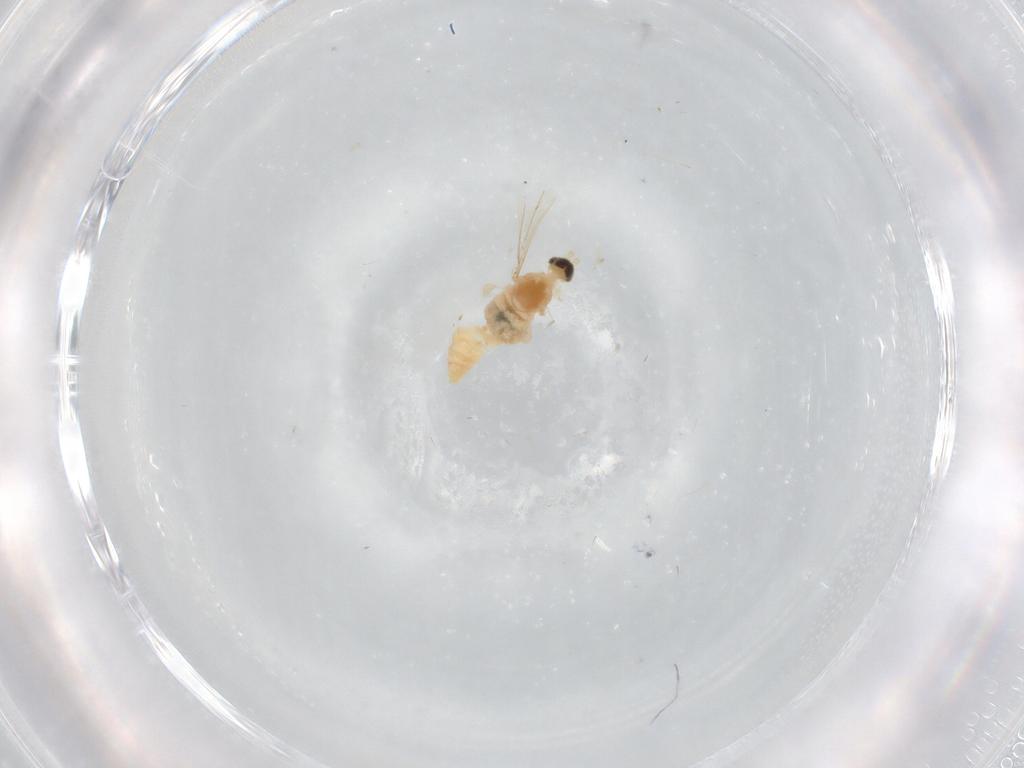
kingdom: Animalia
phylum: Arthropoda
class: Insecta
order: Diptera
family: Cecidomyiidae
